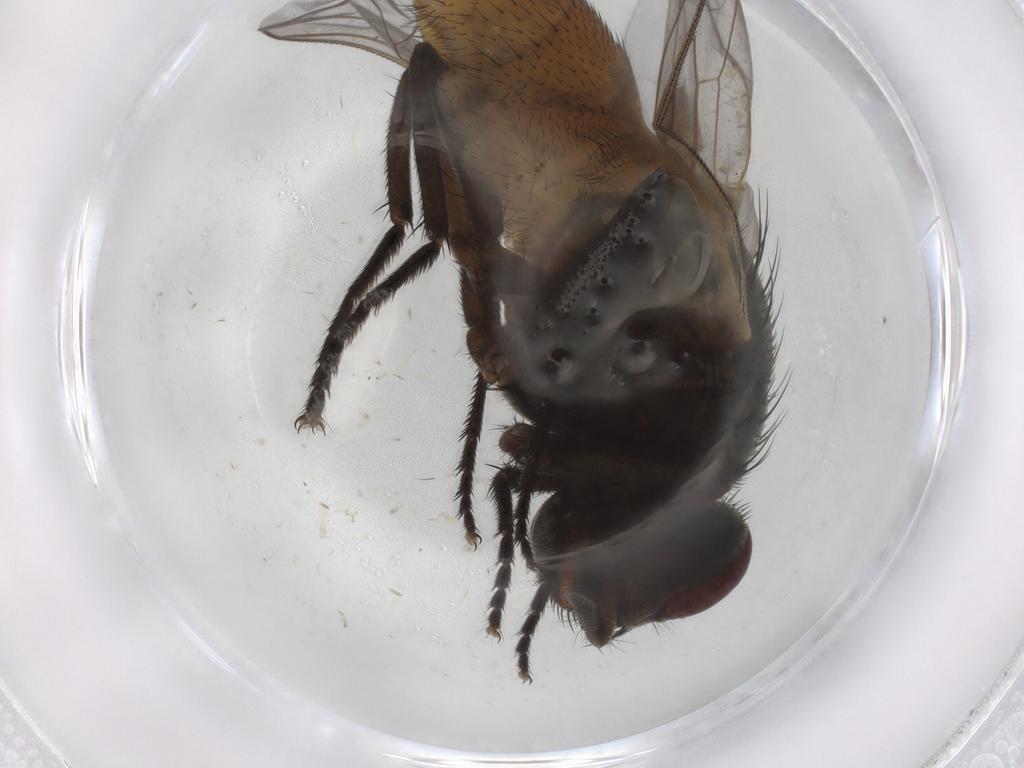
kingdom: Animalia
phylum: Arthropoda
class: Insecta
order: Diptera
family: Muscidae
